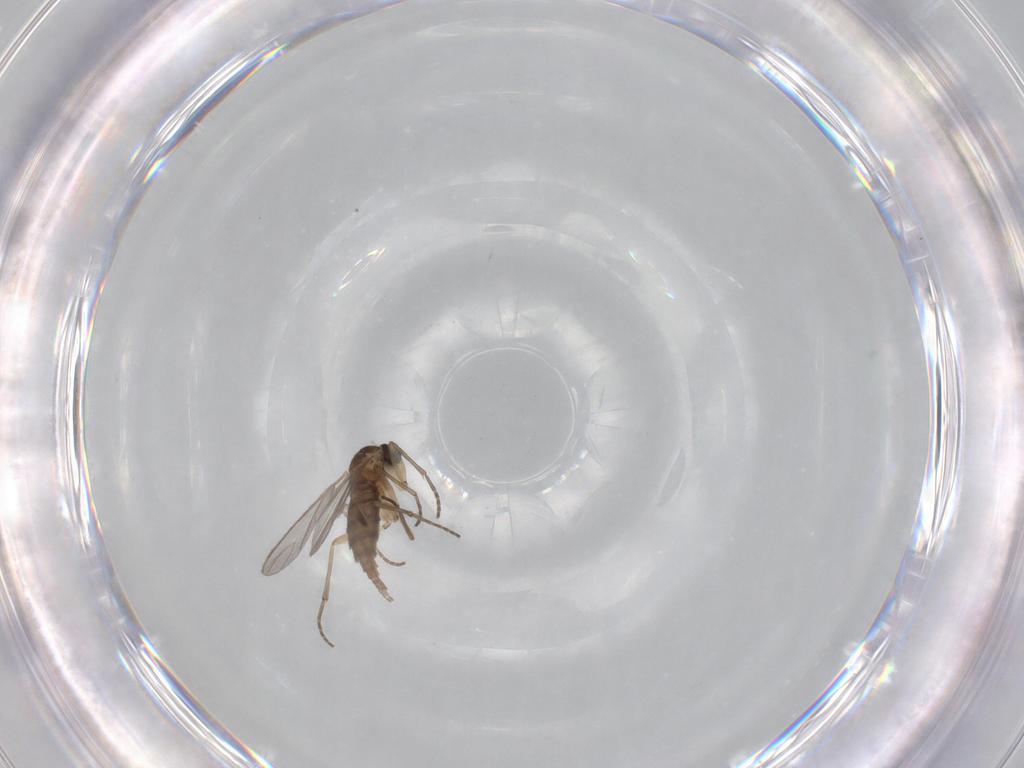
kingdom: Animalia
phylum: Arthropoda
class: Insecta
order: Diptera
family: Sciaridae
